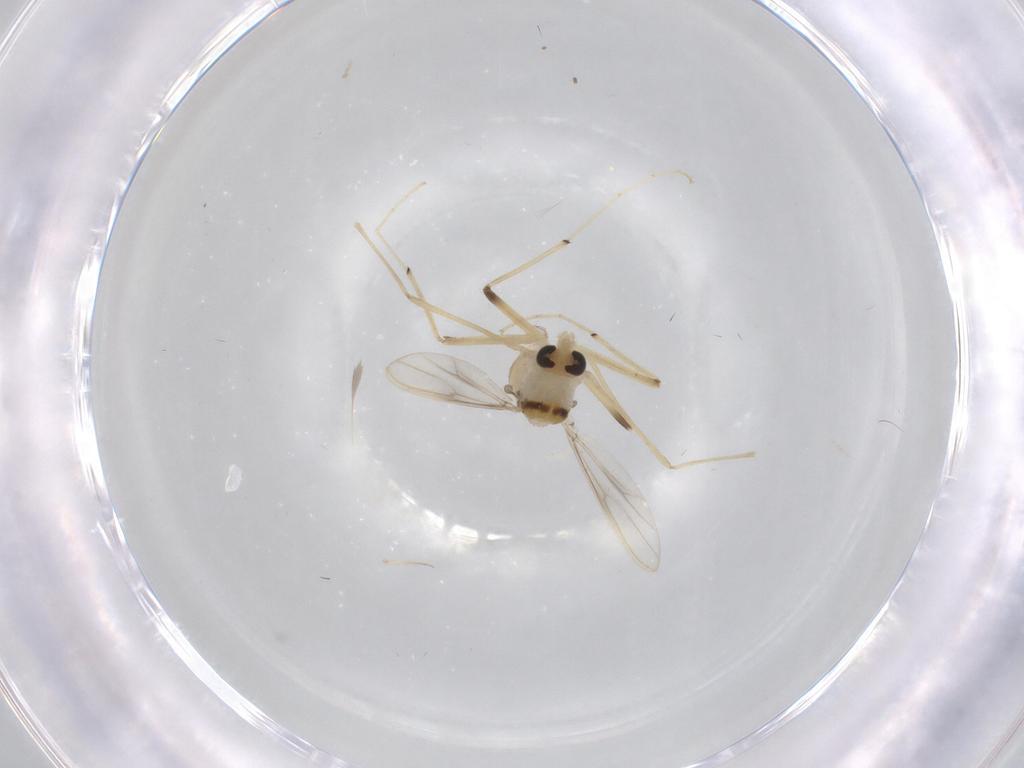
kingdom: Animalia
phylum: Arthropoda
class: Insecta
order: Diptera
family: Chironomidae
